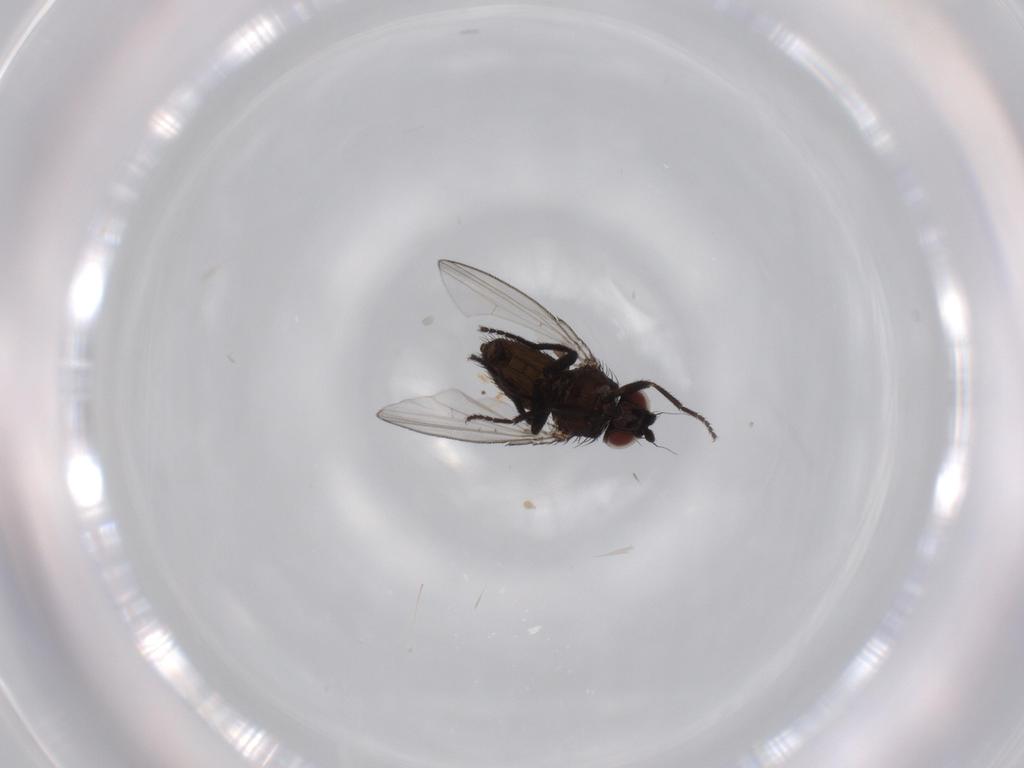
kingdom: Animalia
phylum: Arthropoda
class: Insecta
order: Diptera
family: Milichiidae
